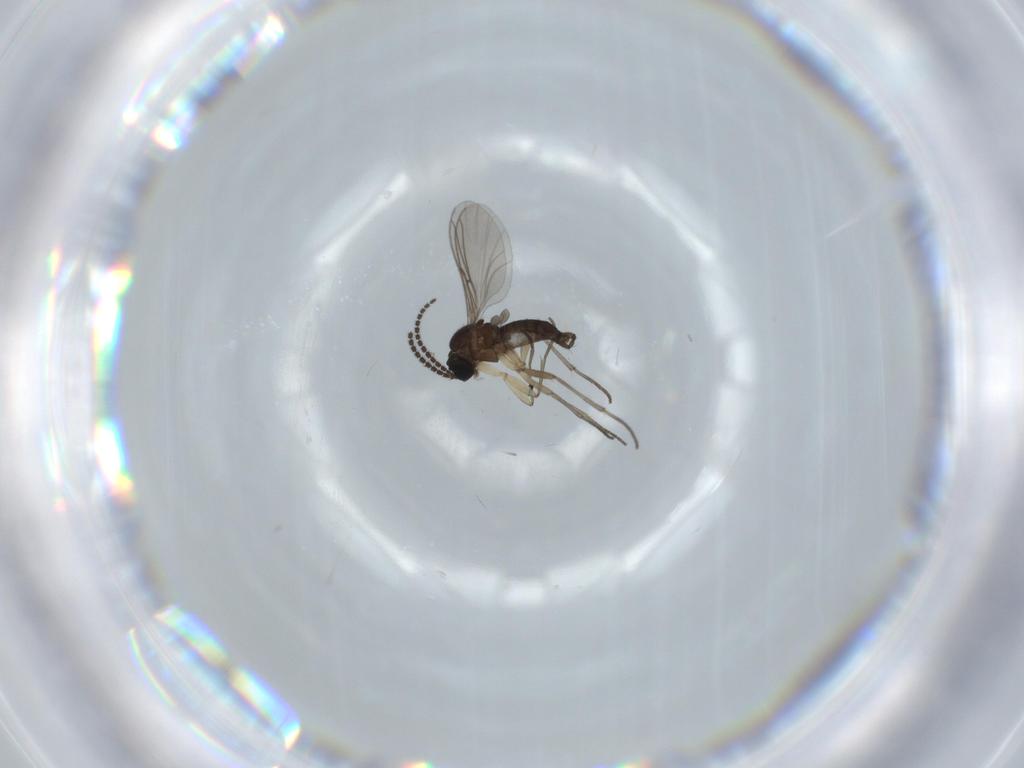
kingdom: Animalia
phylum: Arthropoda
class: Insecta
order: Diptera
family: Sciaridae
